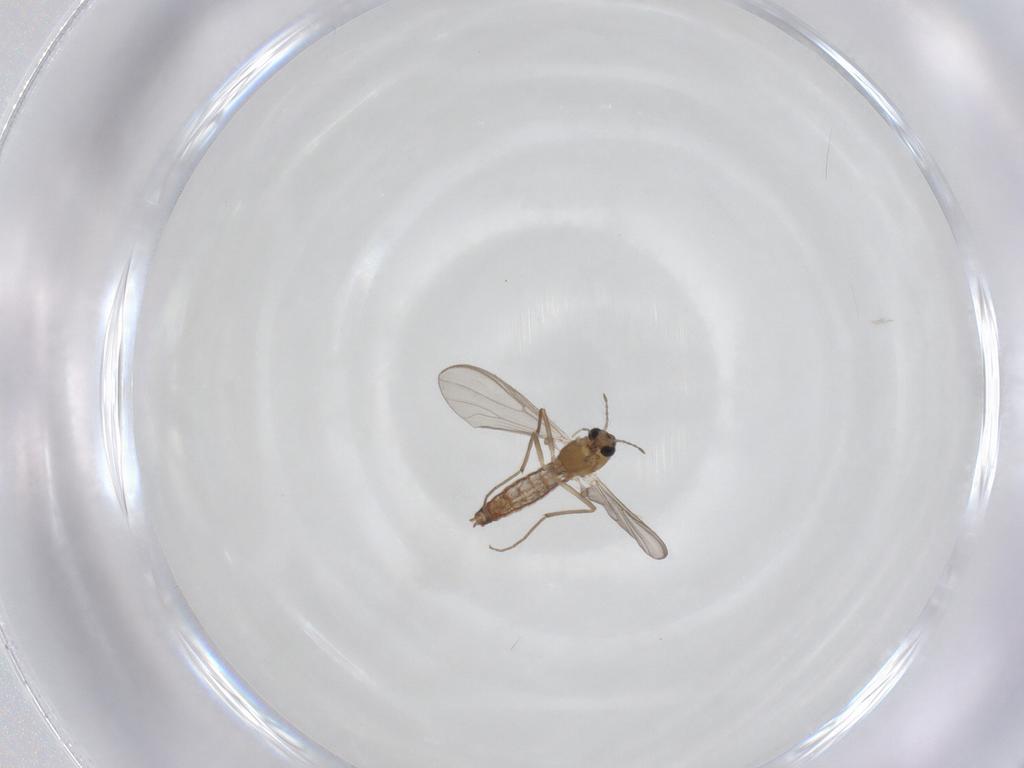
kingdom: Animalia
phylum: Arthropoda
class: Insecta
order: Diptera
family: Chironomidae
